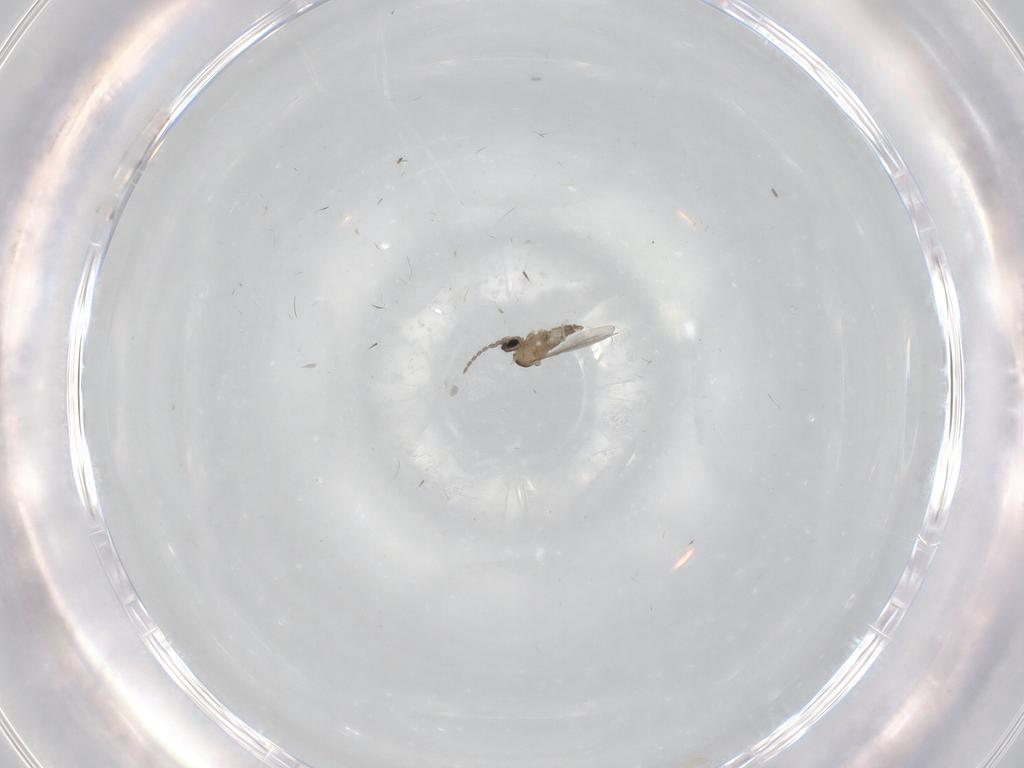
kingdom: Animalia
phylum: Arthropoda
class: Insecta
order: Diptera
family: Cecidomyiidae
